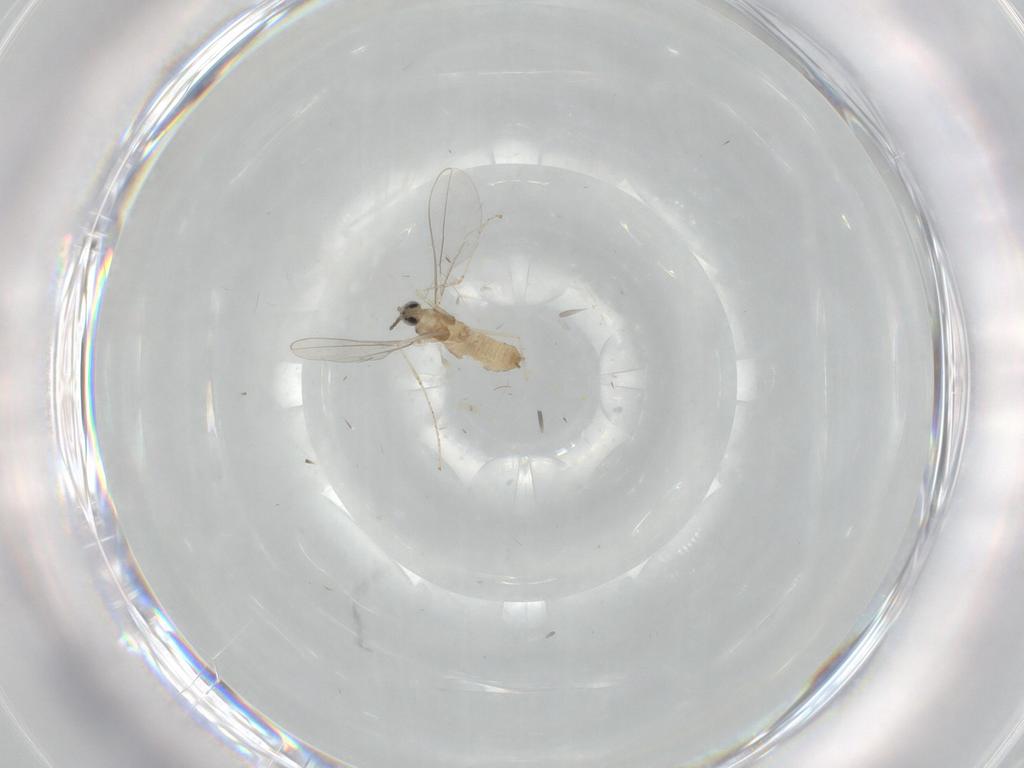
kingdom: Animalia
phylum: Arthropoda
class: Insecta
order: Diptera
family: Cecidomyiidae
